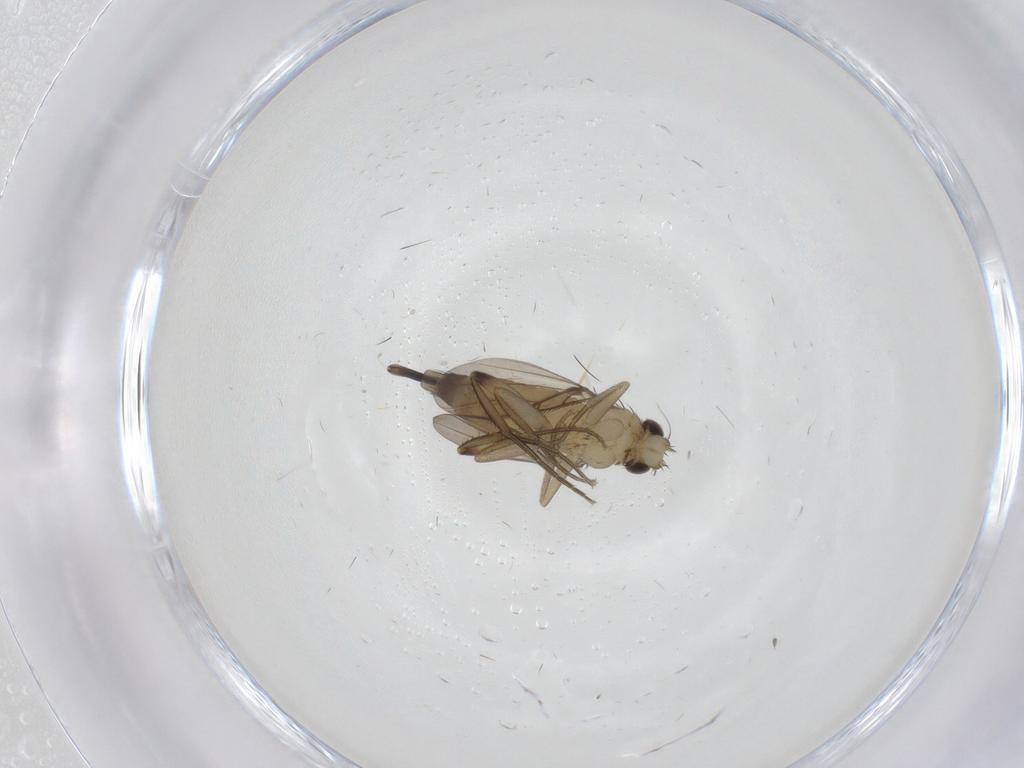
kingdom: Animalia
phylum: Arthropoda
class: Insecta
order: Diptera
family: Phoridae
